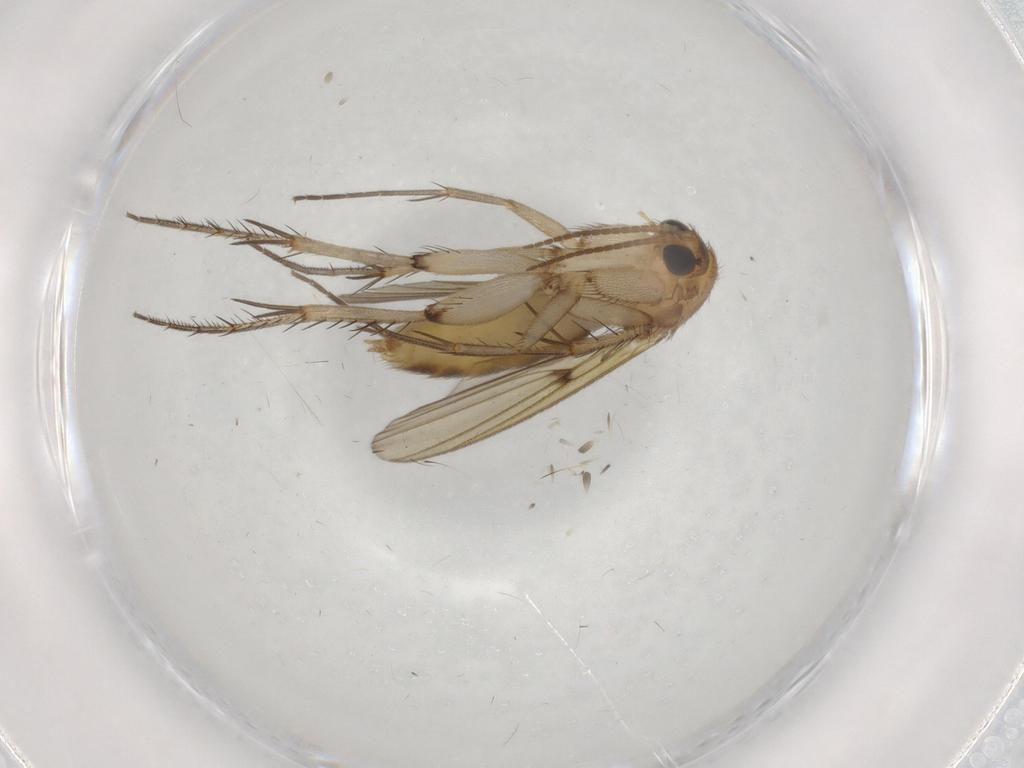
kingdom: Animalia
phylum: Arthropoda
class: Insecta
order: Diptera
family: Mycetophilidae
